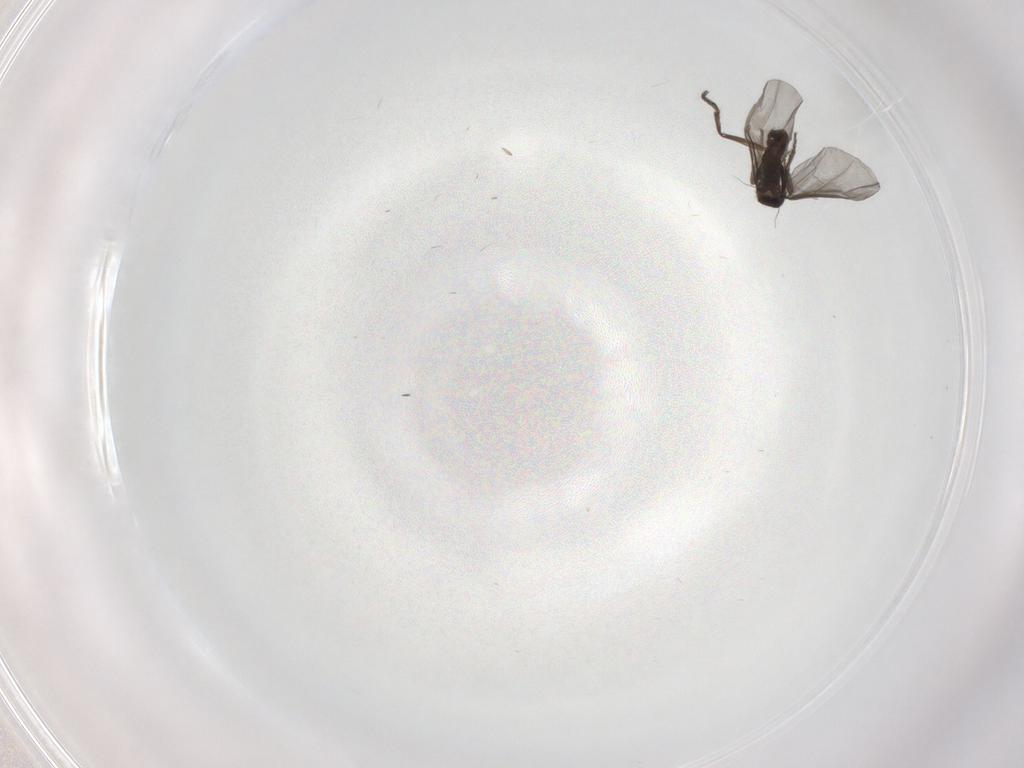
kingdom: Animalia
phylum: Arthropoda
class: Insecta
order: Diptera
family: Phoridae
